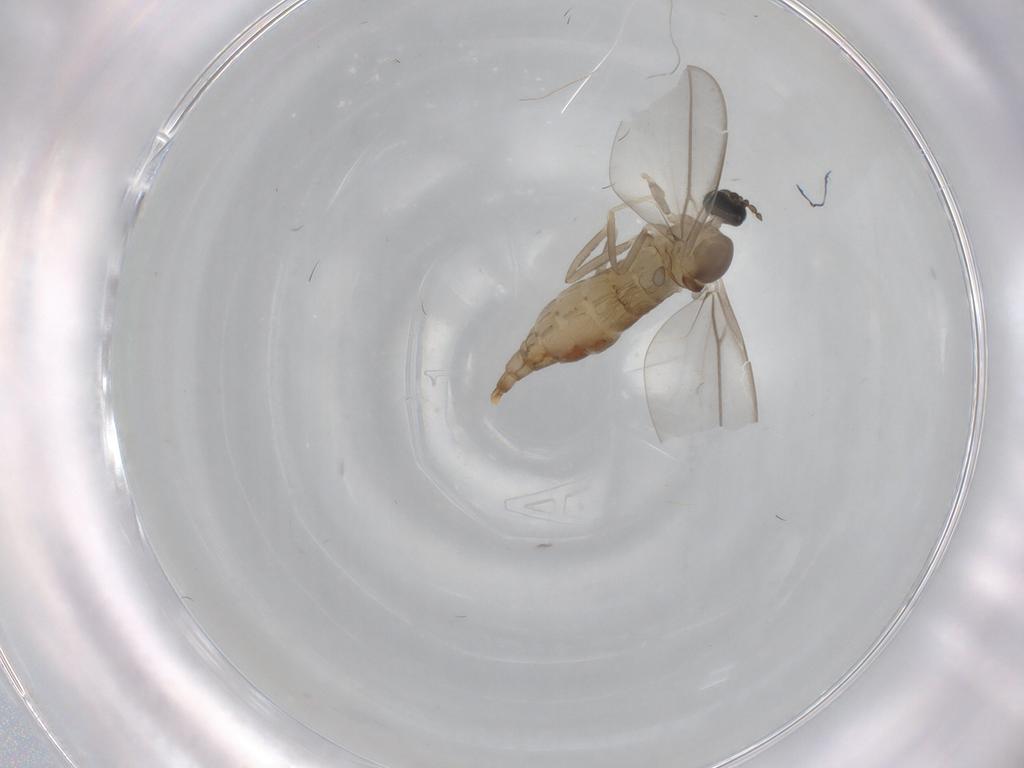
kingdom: Animalia
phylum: Arthropoda
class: Insecta
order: Diptera
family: Cecidomyiidae
